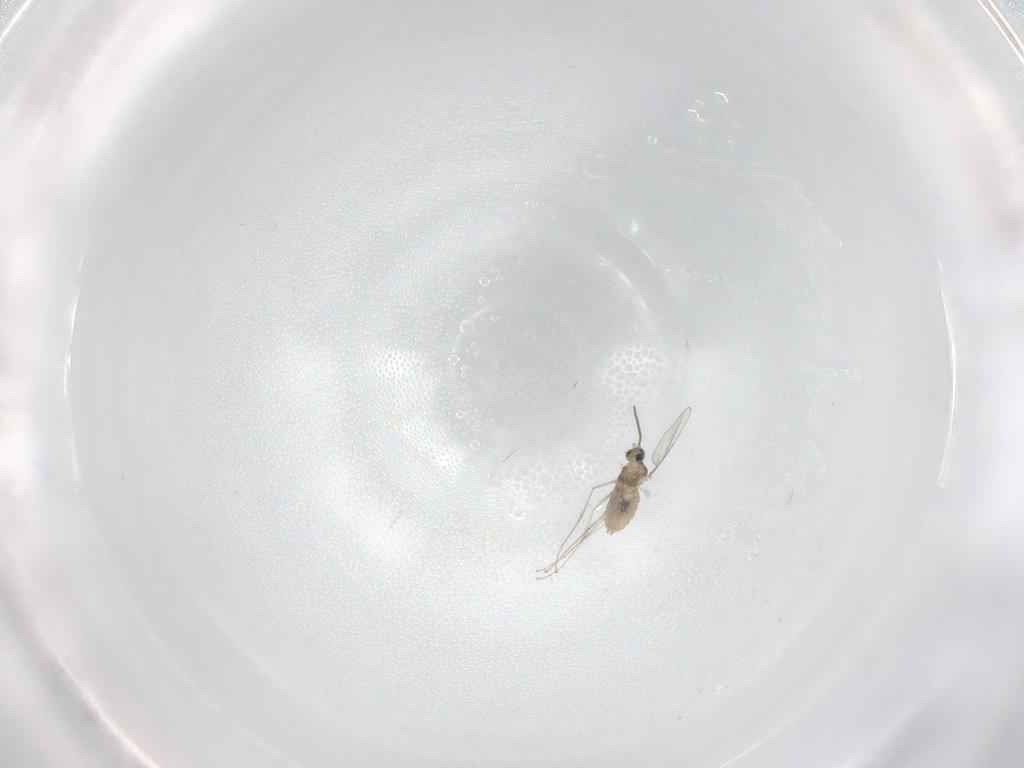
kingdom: Animalia
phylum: Arthropoda
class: Insecta
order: Diptera
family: Cecidomyiidae
